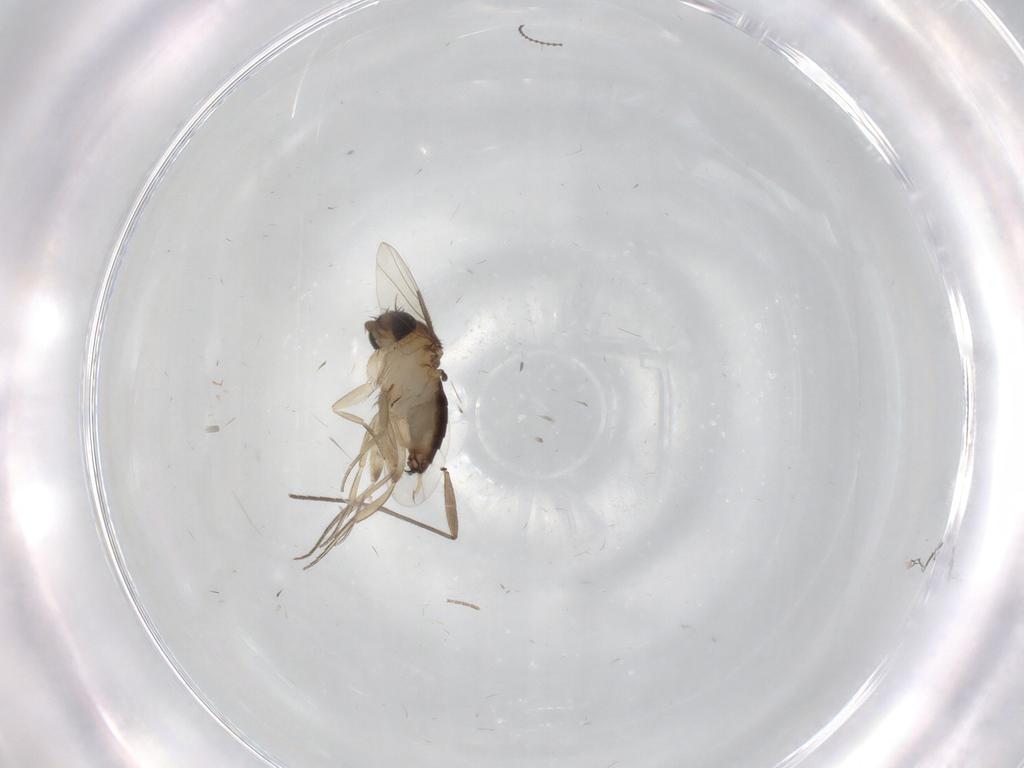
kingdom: Animalia
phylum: Arthropoda
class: Insecta
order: Diptera
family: Phoridae
